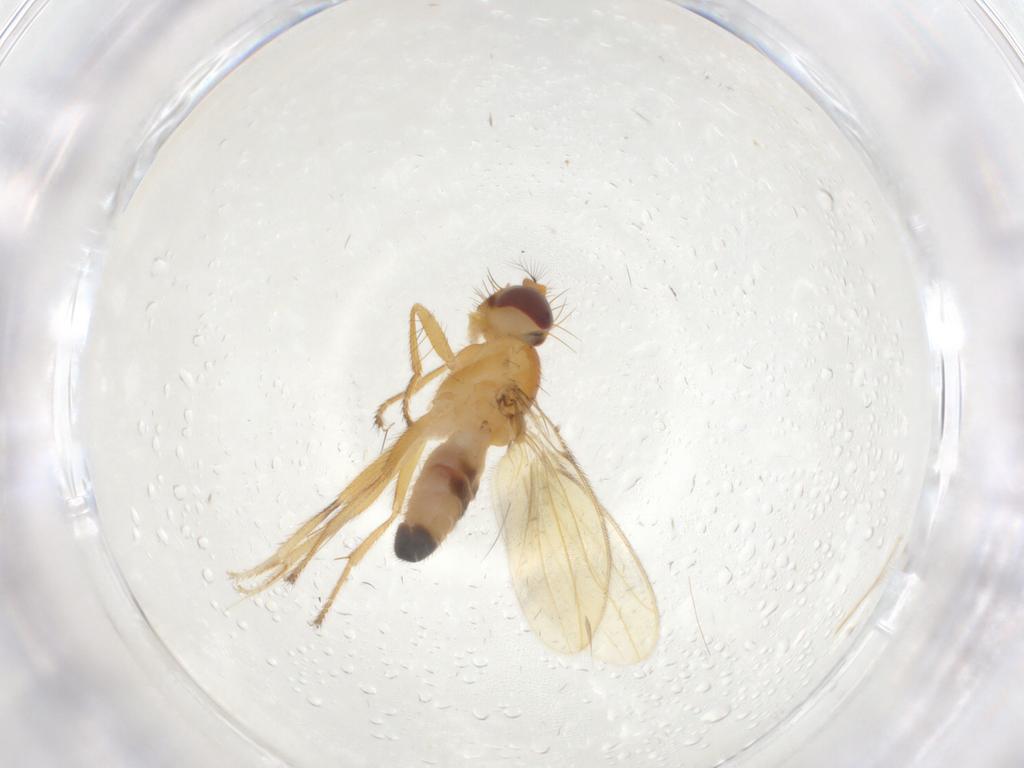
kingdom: Animalia
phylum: Arthropoda
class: Insecta
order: Diptera
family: Periscelididae
